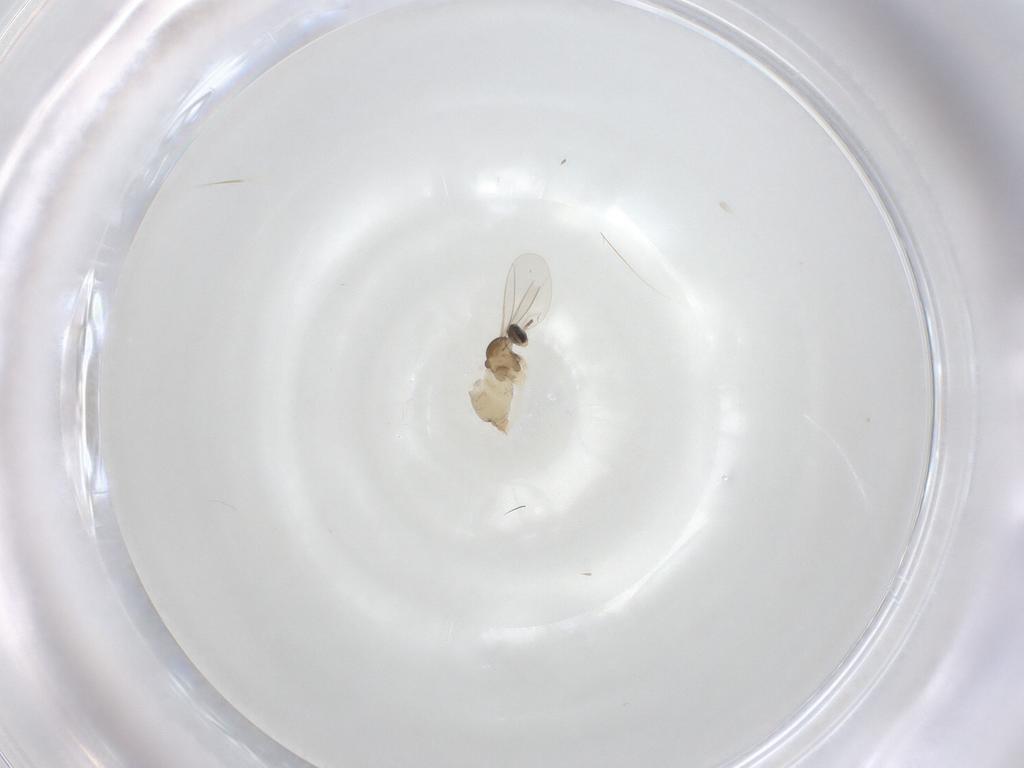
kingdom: Animalia
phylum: Arthropoda
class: Insecta
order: Diptera
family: Cecidomyiidae
